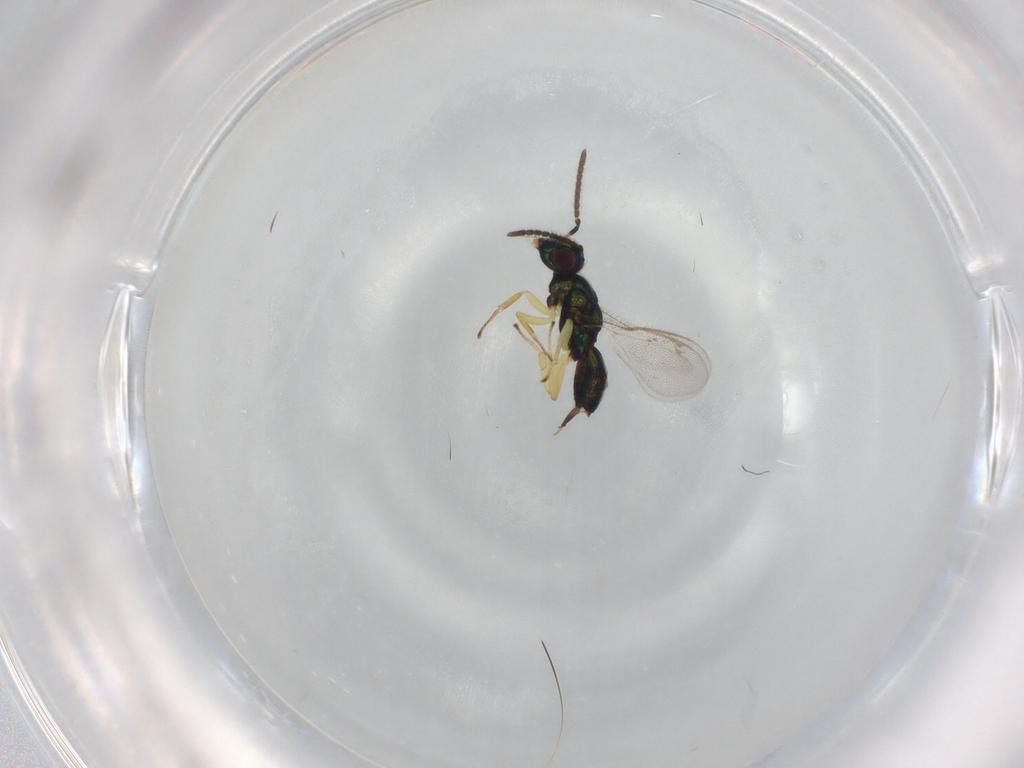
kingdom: Animalia
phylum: Arthropoda
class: Insecta
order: Hymenoptera
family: Eupelmidae
